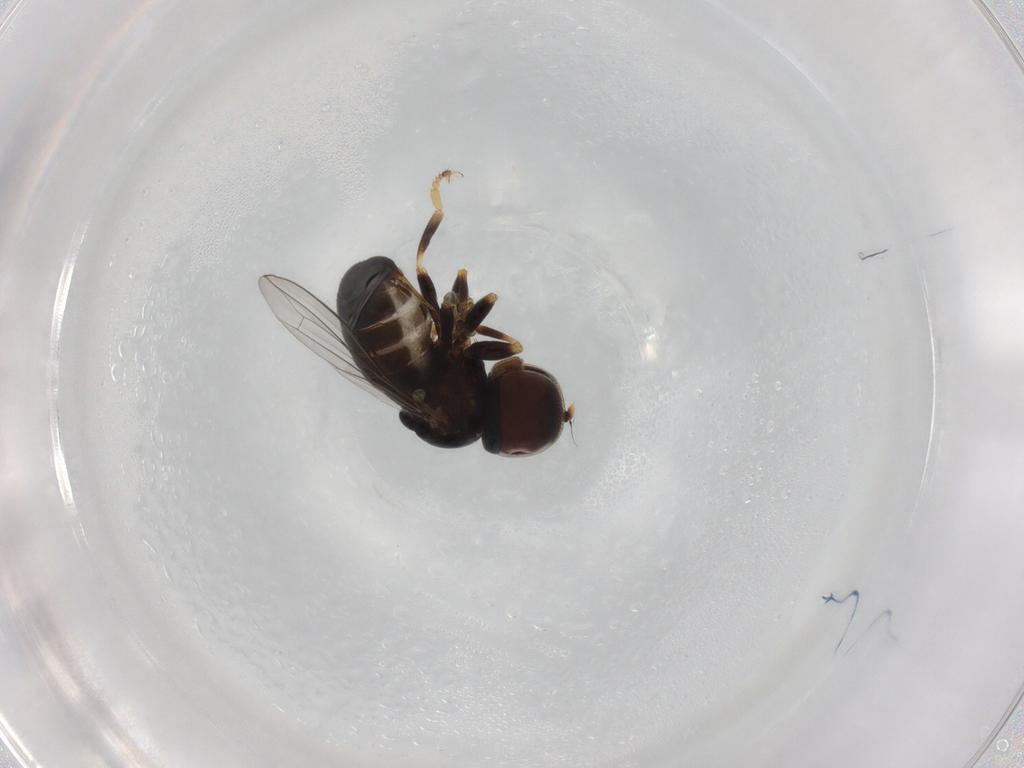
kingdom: Animalia
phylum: Arthropoda
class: Insecta
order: Diptera
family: Pipunculidae
